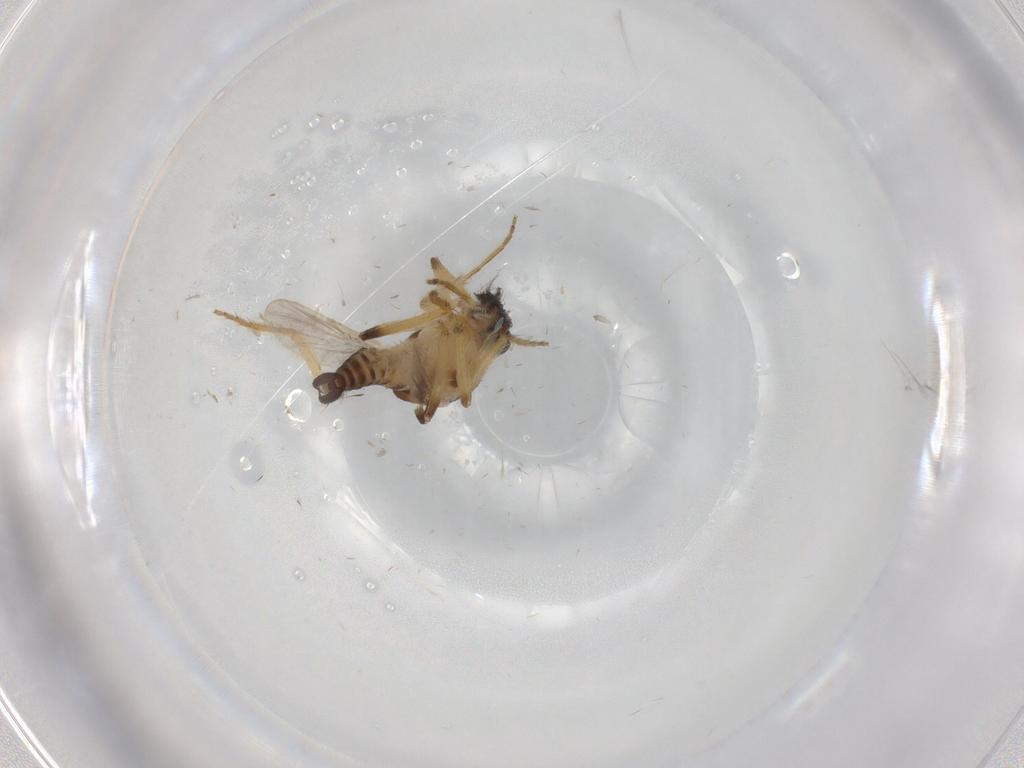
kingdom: Animalia
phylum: Arthropoda
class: Insecta
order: Diptera
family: Ceratopogonidae
